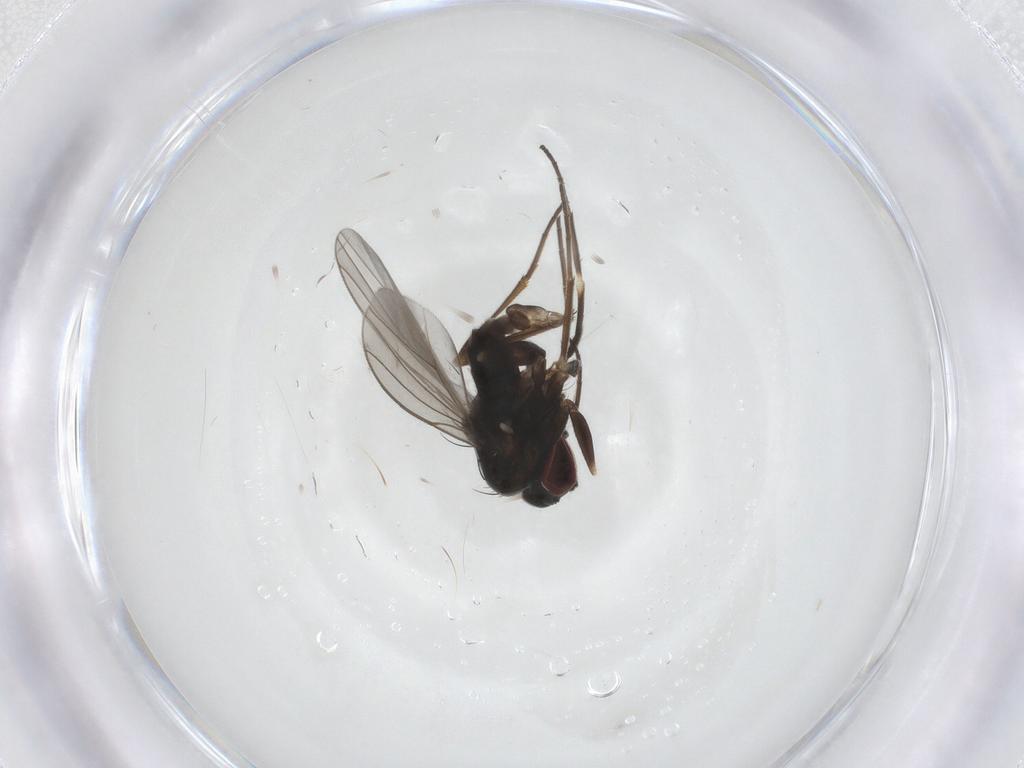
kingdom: Animalia
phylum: Arthropoda
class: Insecta
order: Diptera
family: Dolichopodidae
